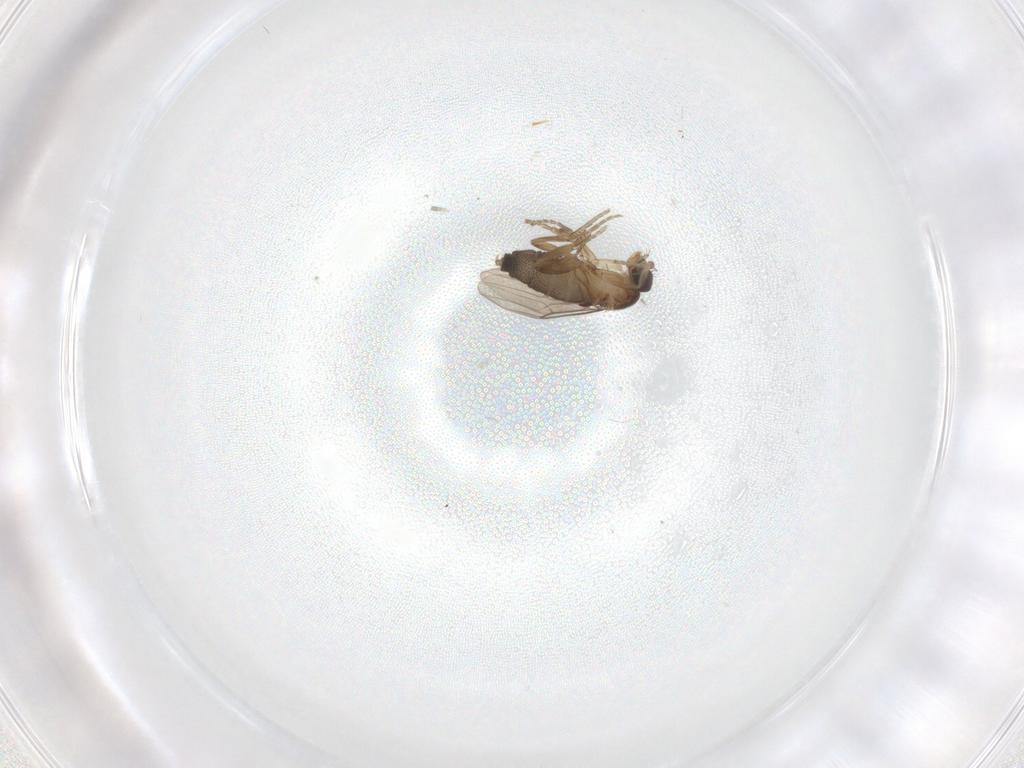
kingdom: Animalia
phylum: Arthropoda
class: Insecta
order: Diptera
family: Phoridae
